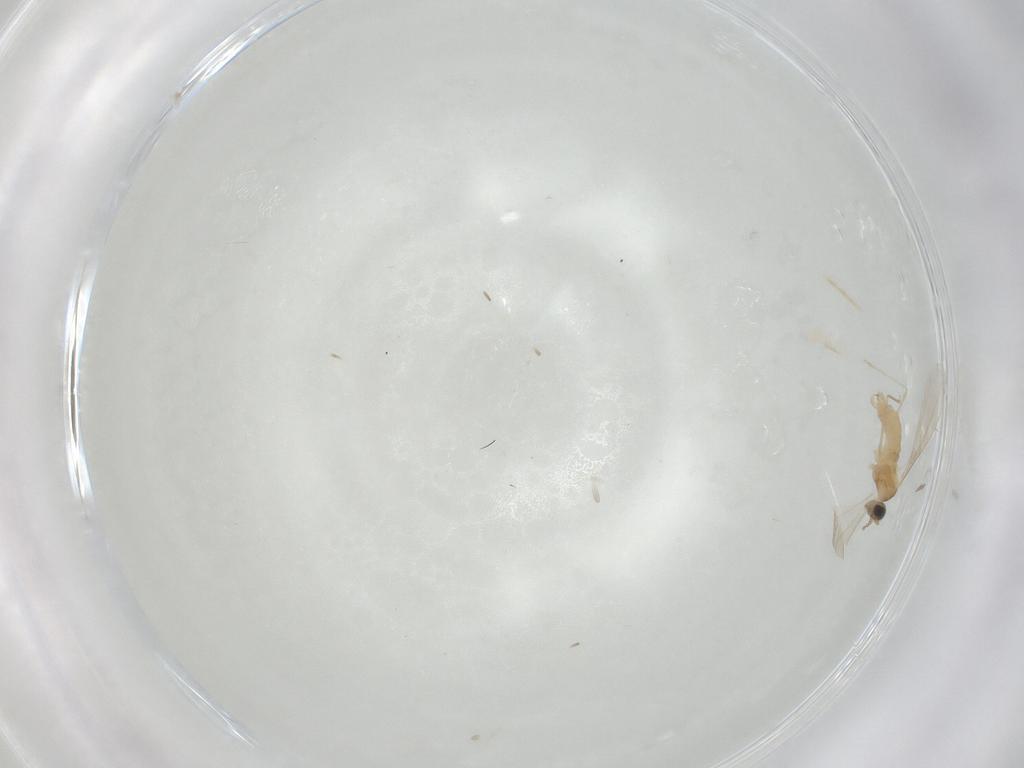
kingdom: Animalia
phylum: Arthropoda
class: Insecta
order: Diptera
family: Cecidomyiidae
